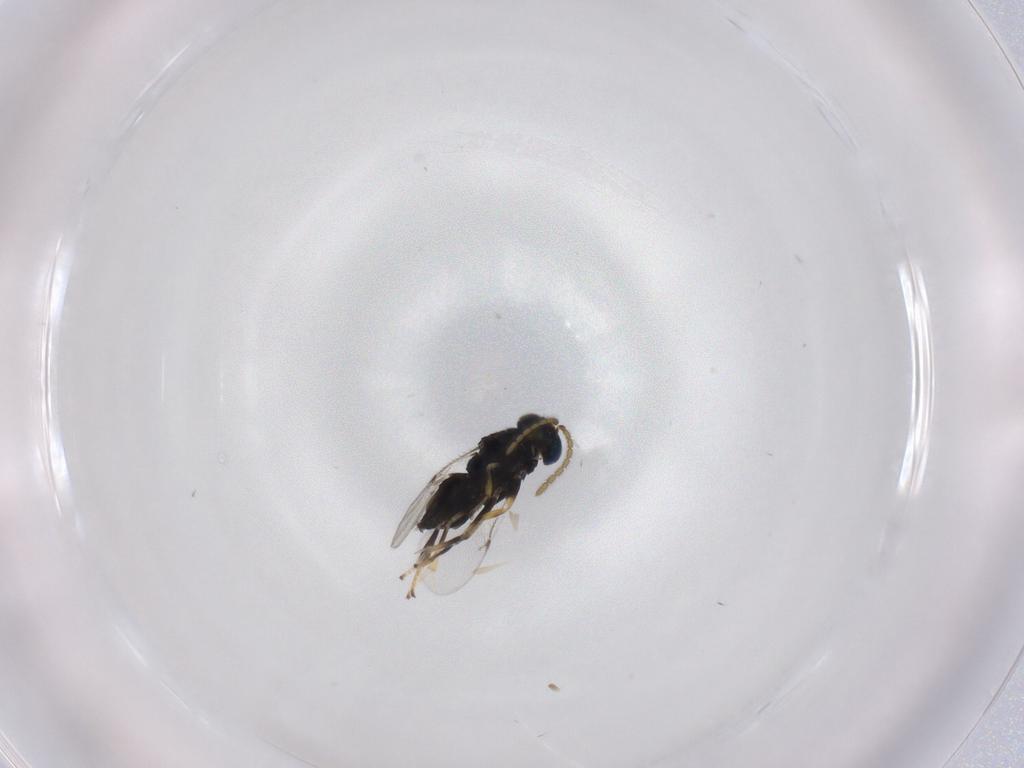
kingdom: Animalia
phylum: Arthropoda
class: Insecta
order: Hymenoptera
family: Encyrtidae
